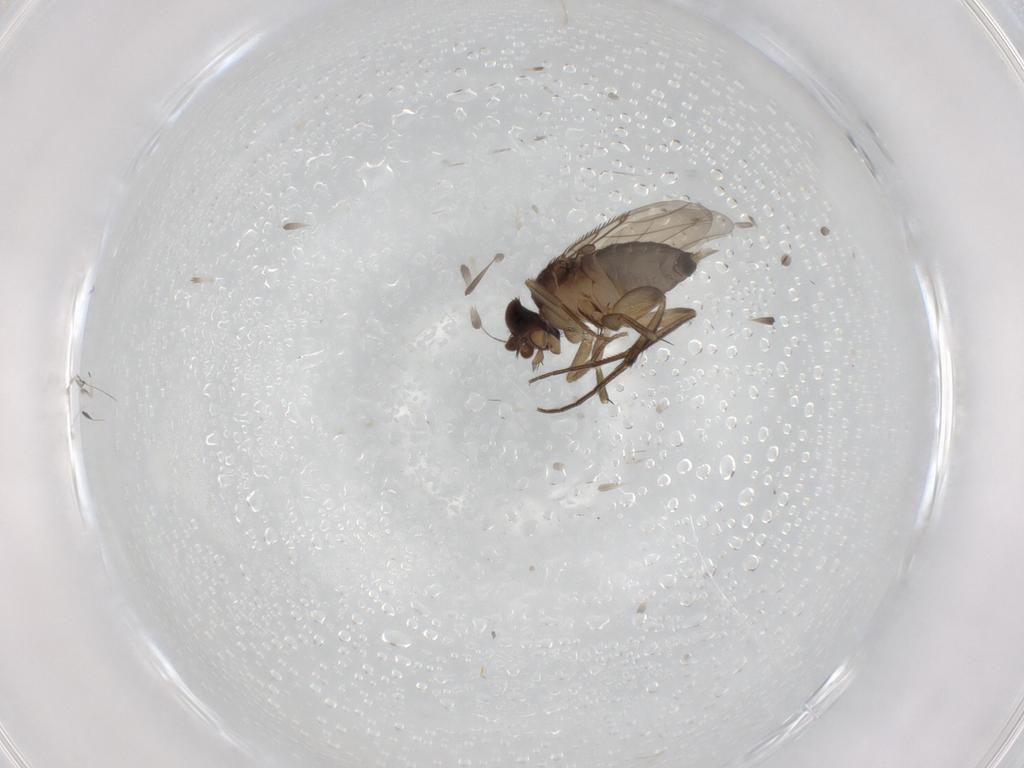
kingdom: Animalia
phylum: Arthropoda
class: Insecta
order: Diptera
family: Phoridae
